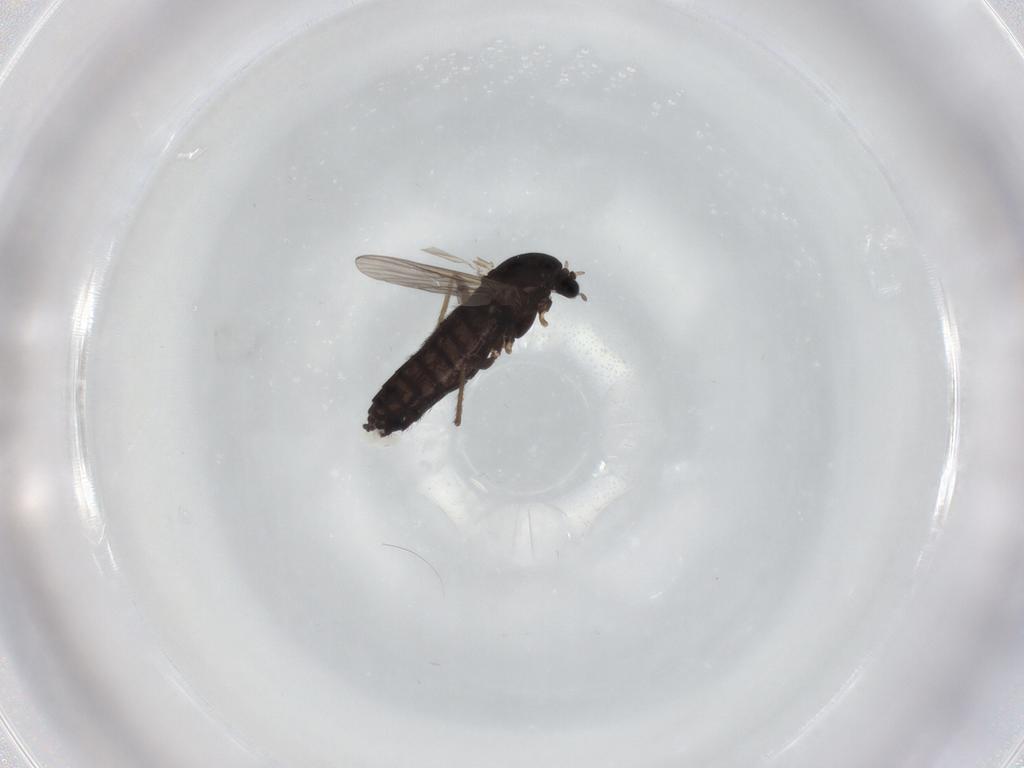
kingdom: Animalia
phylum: Arthropoda
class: Insecta
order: Diptera
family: Chironomidae
